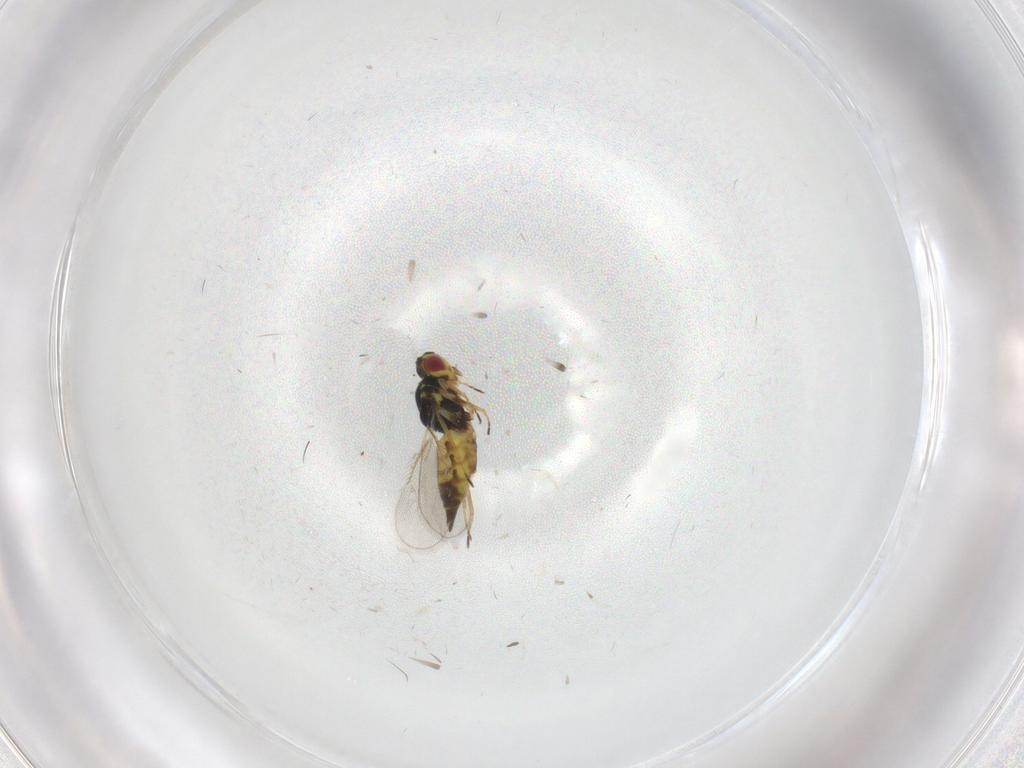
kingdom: Animalia
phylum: Arthropoda
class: Insecta
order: Hymenoptera
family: Eulophidae
